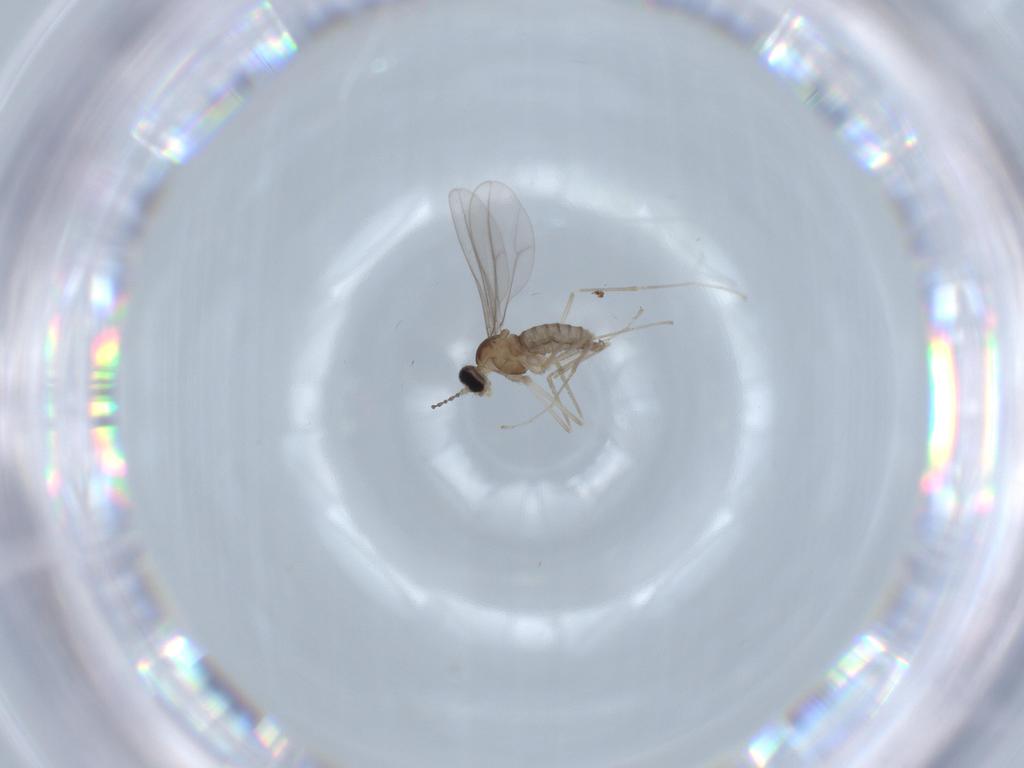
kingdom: Animalia
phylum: Arthropoda
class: Insecta
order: Diptera
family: Cecidomyiidae
